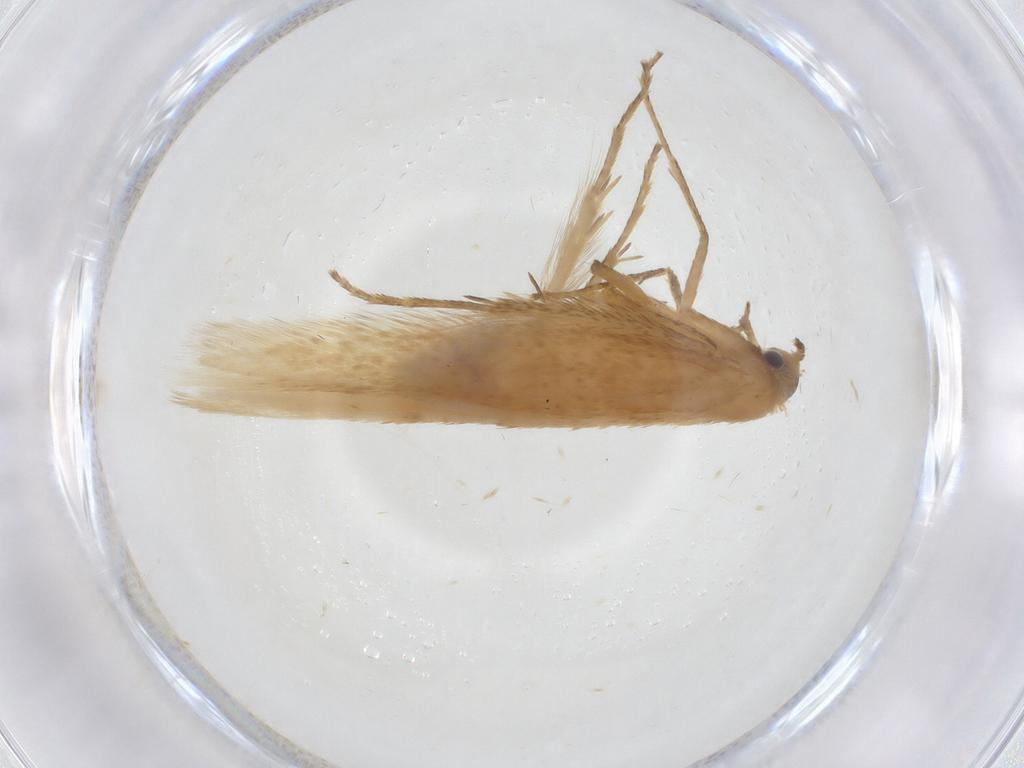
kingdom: Animalia
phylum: Arthropoda
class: Insecta
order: Lepidoptera
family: Coleophoridae
